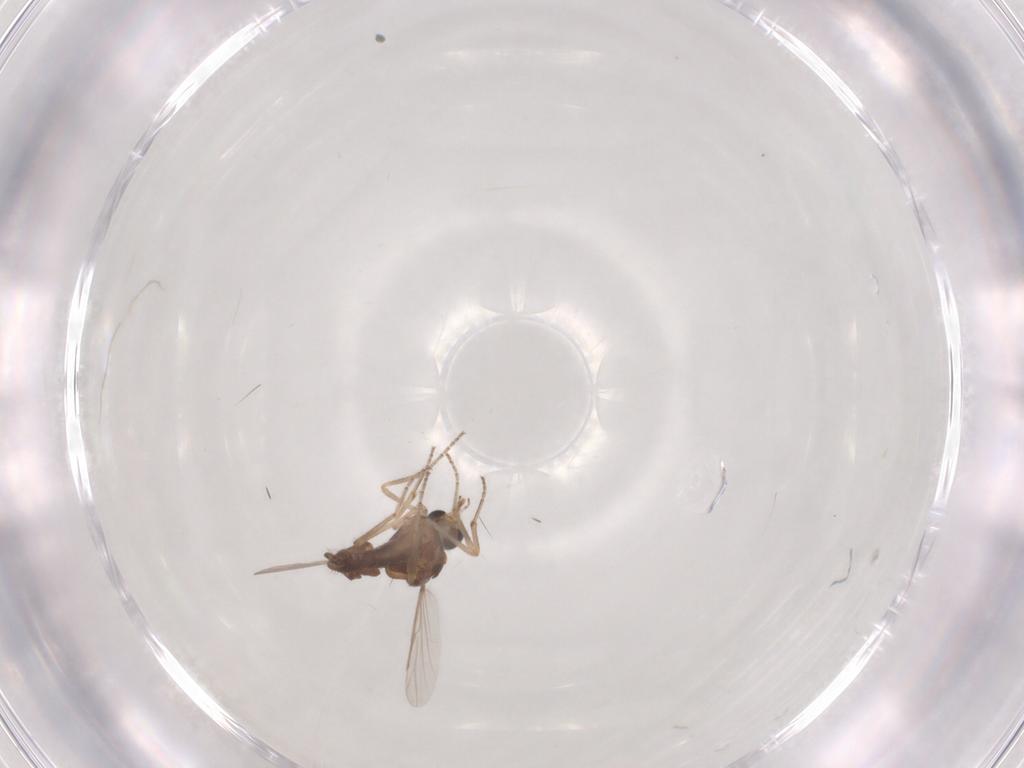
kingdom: Animalia
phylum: Arthropoda
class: Insecta
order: Diptera
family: Ceratopogonidae
